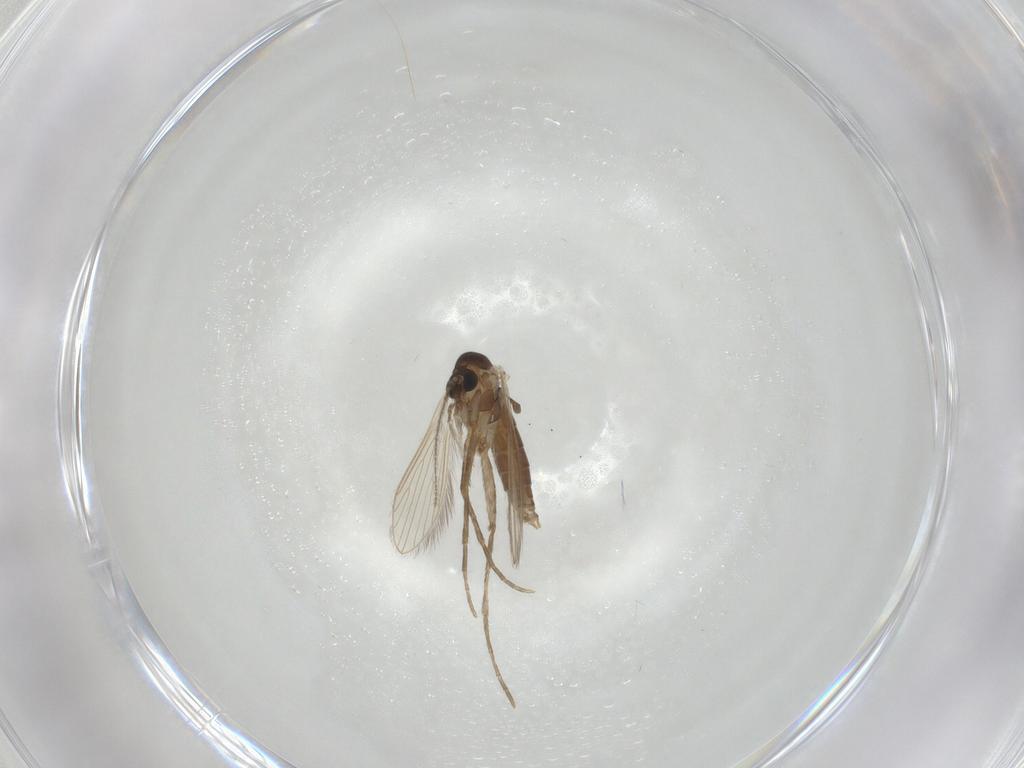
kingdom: Animalia
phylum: Arthropoda
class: Insecta
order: Diptera
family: Psychodidae
